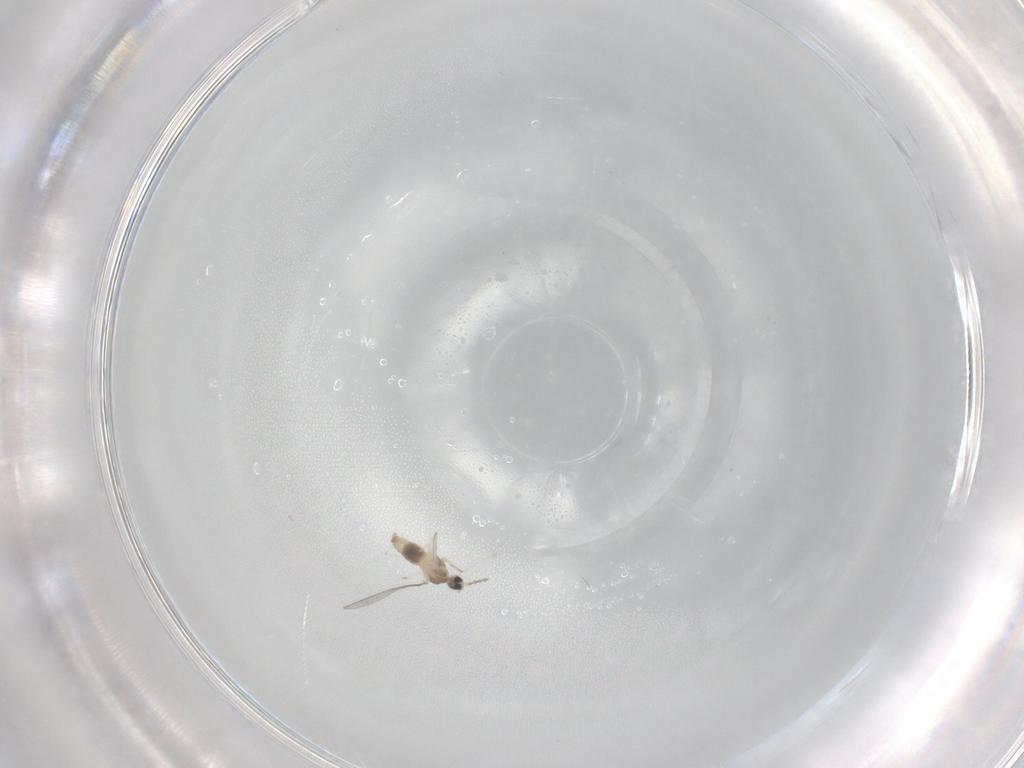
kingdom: Animalia
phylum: Arthropoda
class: Insecta
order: Diptera
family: Cecidomyiidae
